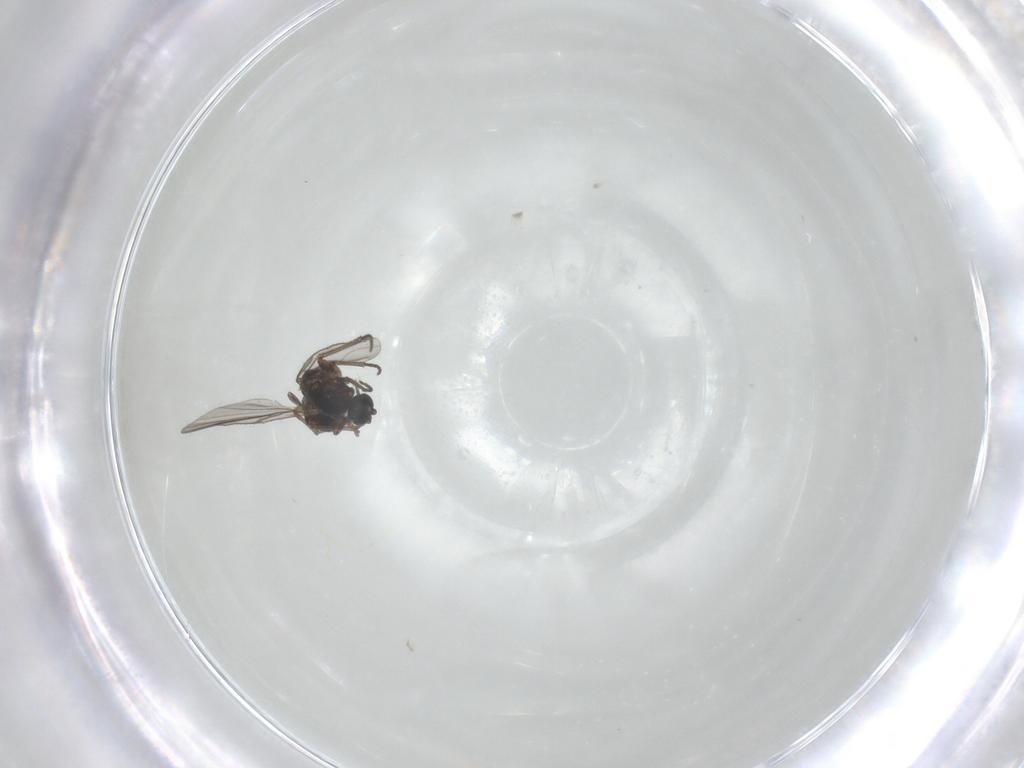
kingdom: Animalia
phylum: Arthropoda
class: Insecta
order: Diptera
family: Sciaridae
